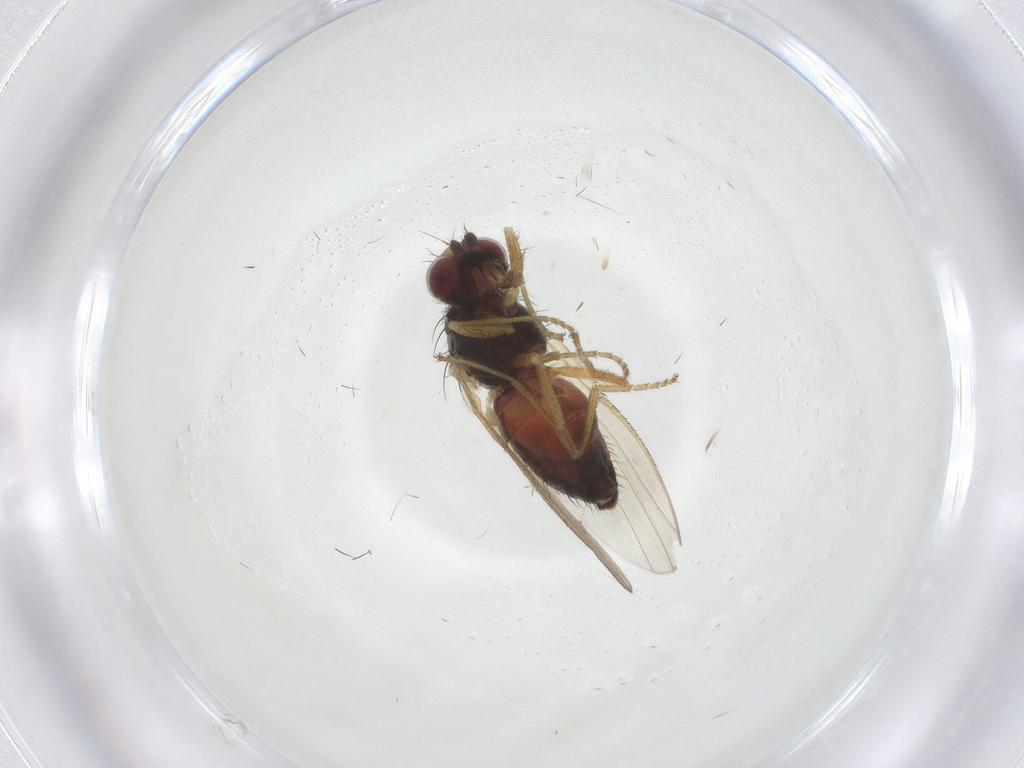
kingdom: Animalia
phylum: Arthropoda
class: Insecta
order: Diptera
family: Heleomyzidae
